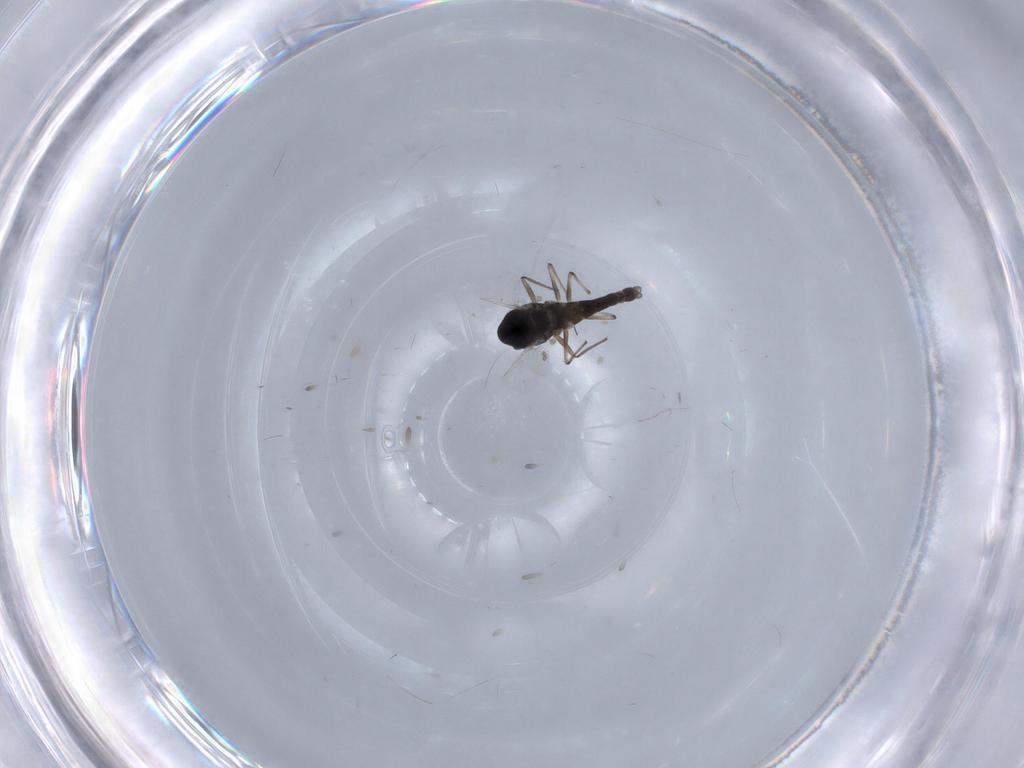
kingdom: Animalia
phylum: Arthropoda
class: Insecta
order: Diptera
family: Chironomidae
